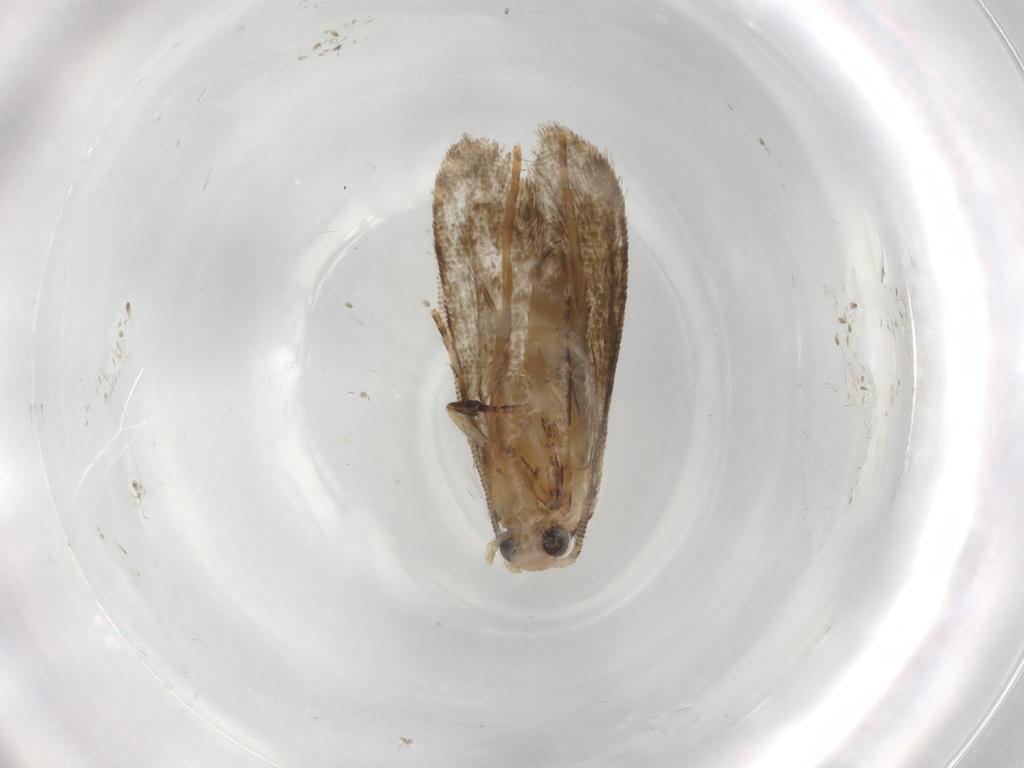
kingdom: Animalia
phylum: Arthropoda
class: Insecta
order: Lepidoptera
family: Tineidae
